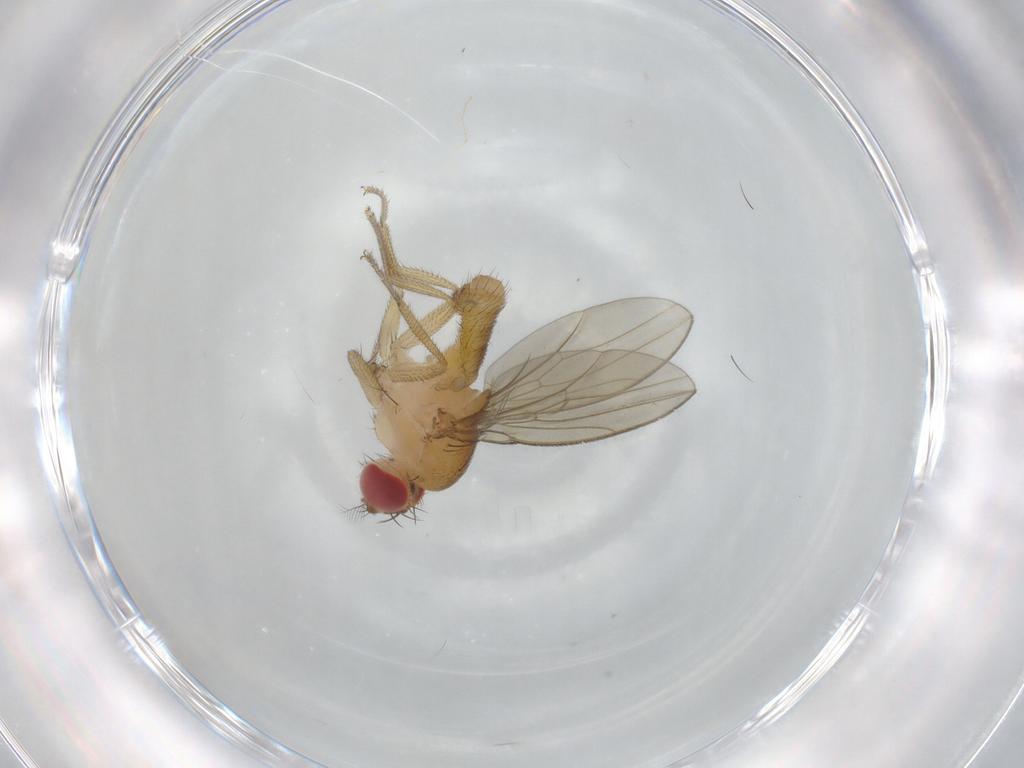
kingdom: Animalia
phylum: Arthropoda
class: Insecta
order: Diptera
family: Drosophilidae
